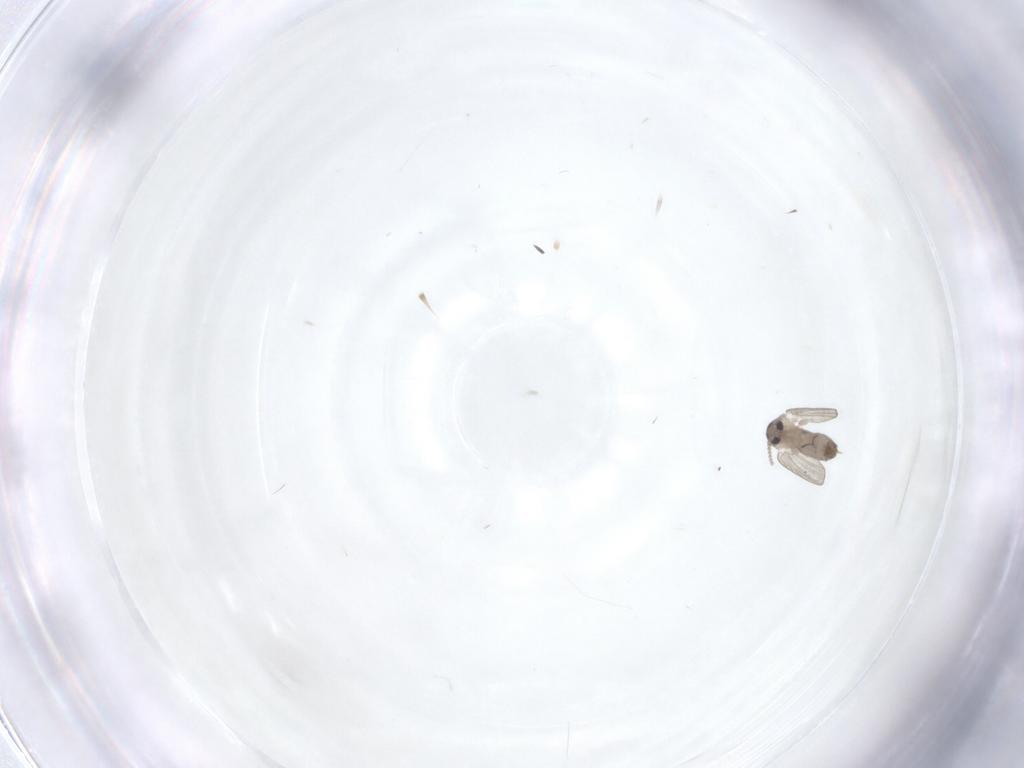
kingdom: Animalia
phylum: Arthropoda
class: Insecta
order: Diptera
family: Psychodidae
